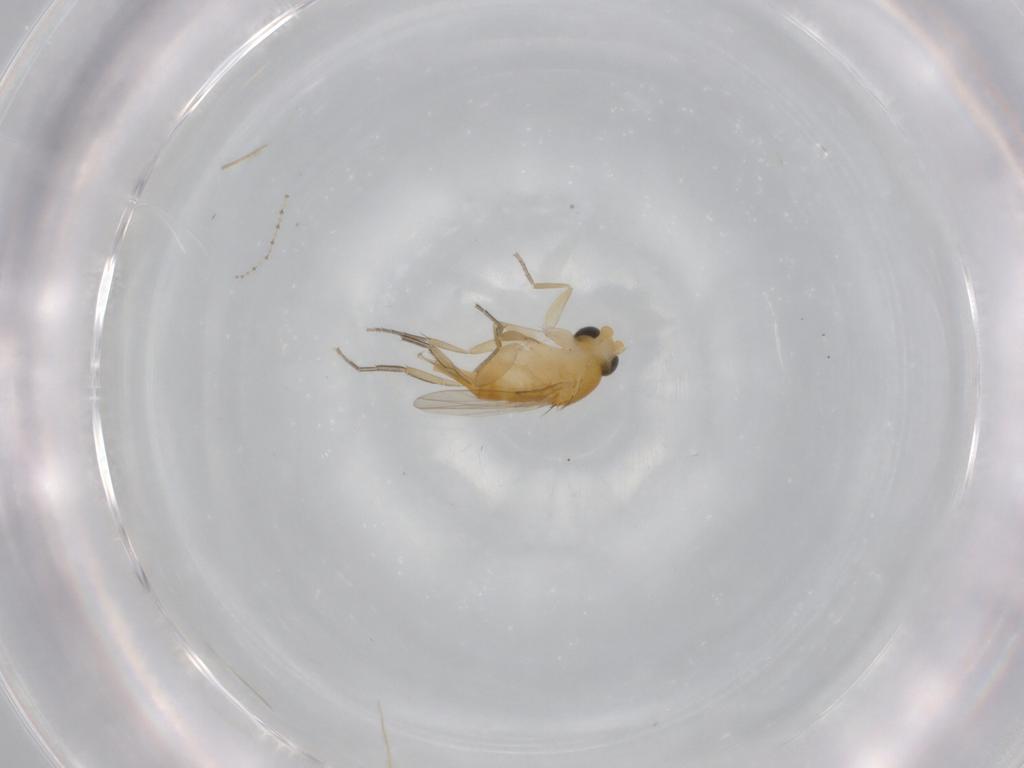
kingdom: Animalia
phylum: Arthropoda
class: Insecta
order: Diptera
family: Phoridae
